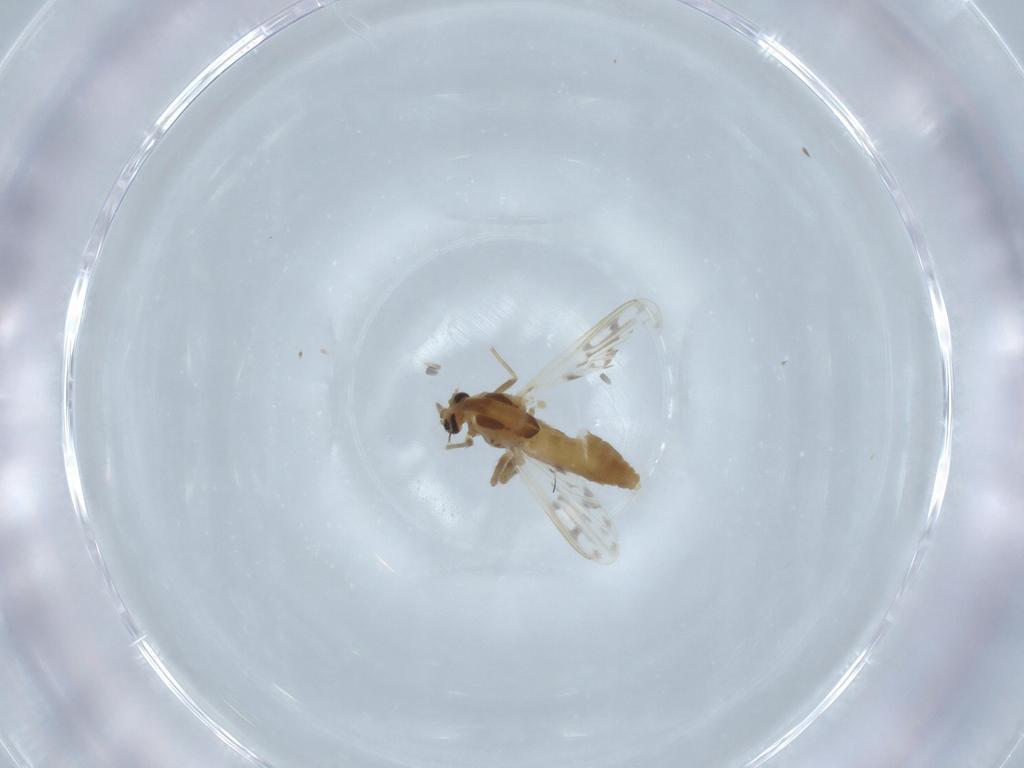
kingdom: Animalia
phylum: Arthropoda
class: Insecta
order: Diptera
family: Chironomidae
